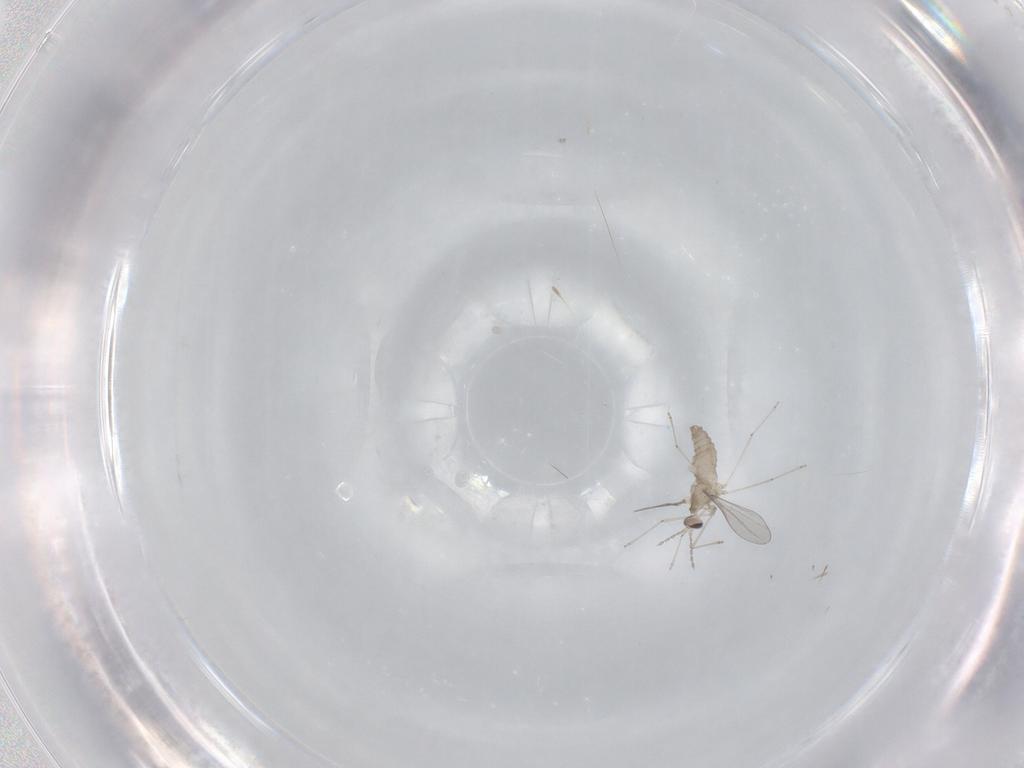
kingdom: Animalia
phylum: Arthropoda
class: Insecta
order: Diptera
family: Cecidomyiidae
